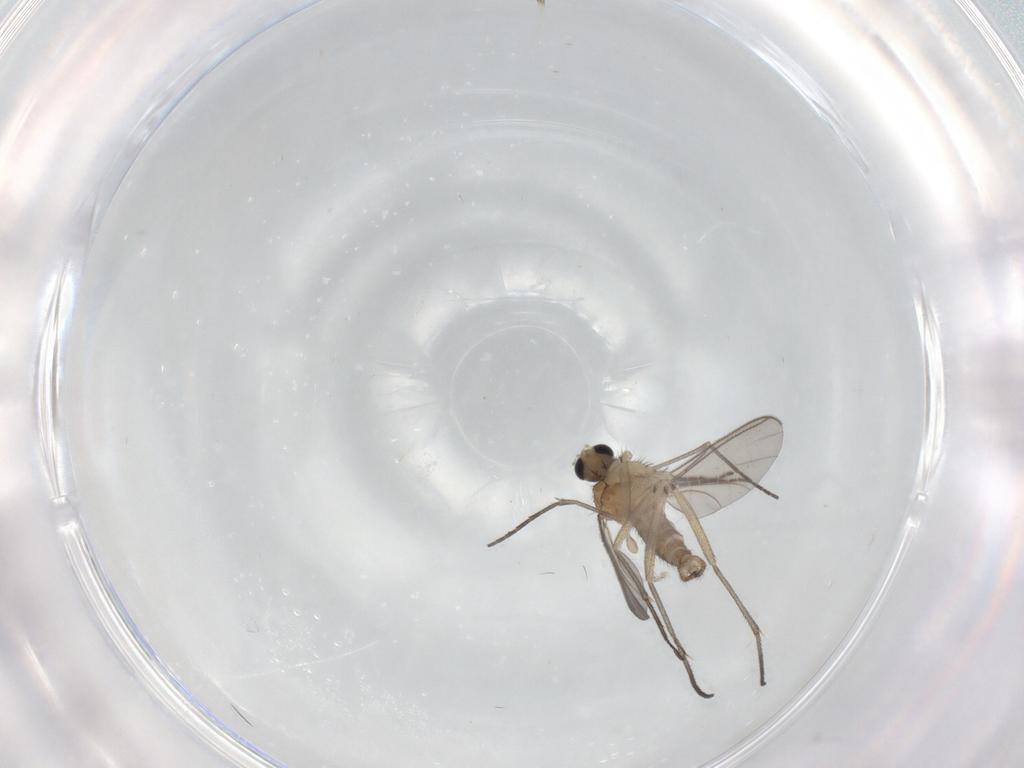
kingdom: Animalia
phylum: Arthropoda
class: Insecta
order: Diptera
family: Sciaridae
